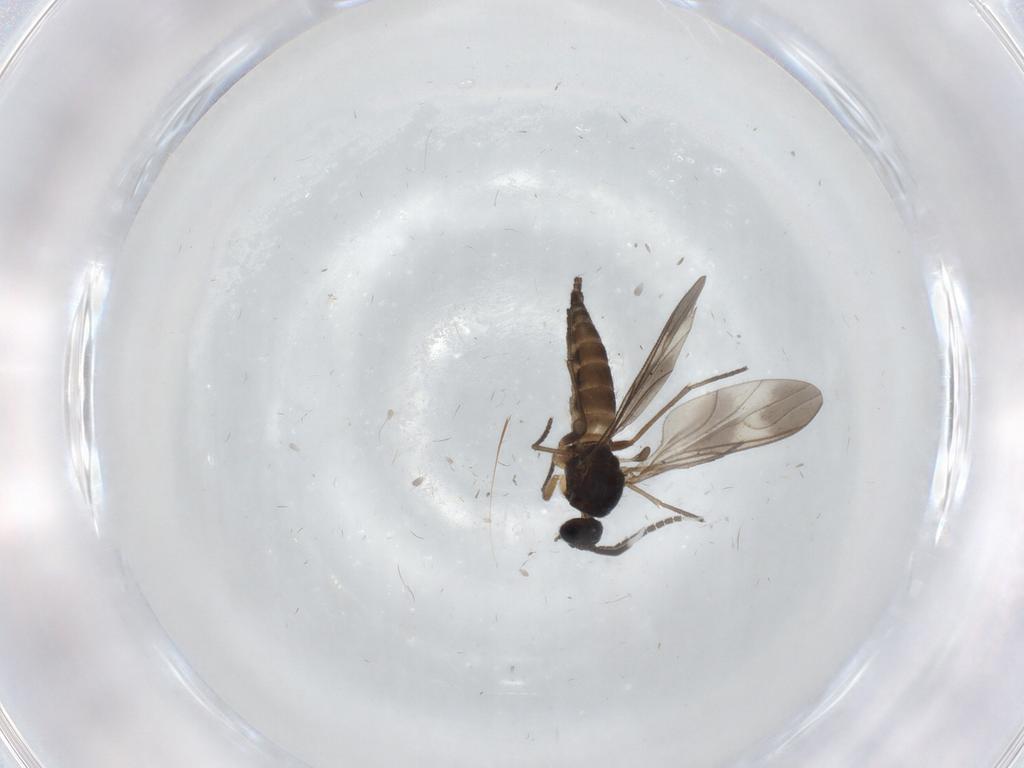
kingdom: Animalia
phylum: Arthropoda
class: Insecta
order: Diptera
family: Sciaridae
